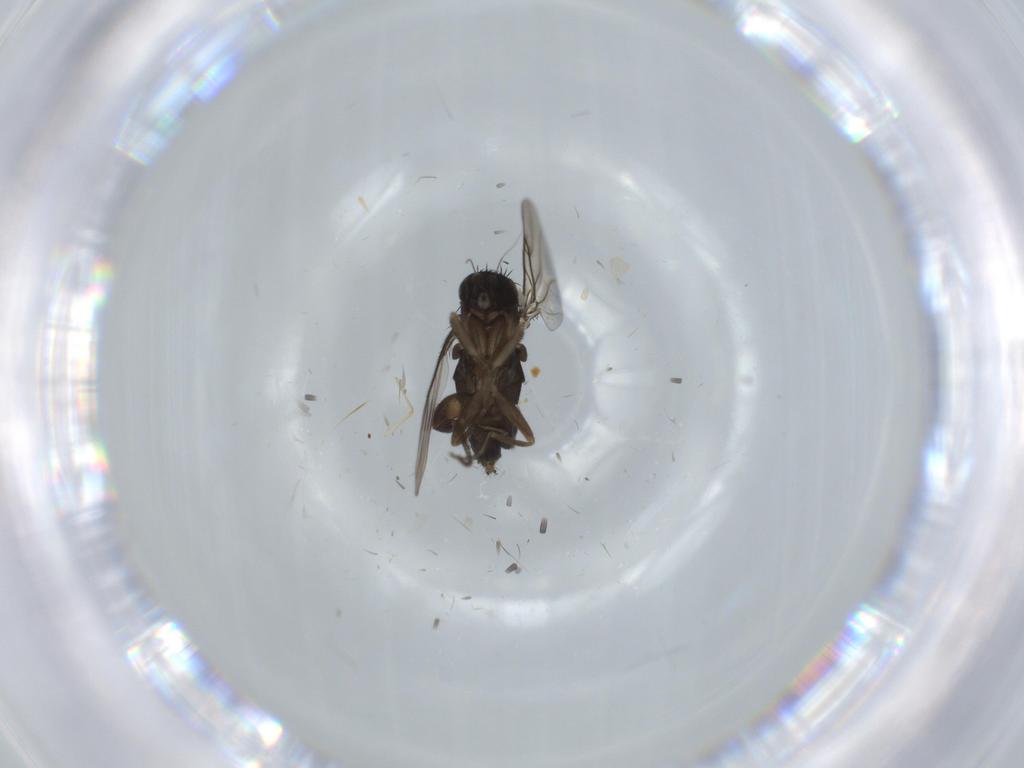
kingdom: Animalia
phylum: Arthropoda
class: Insecta
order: Diptera
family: Phoridae
